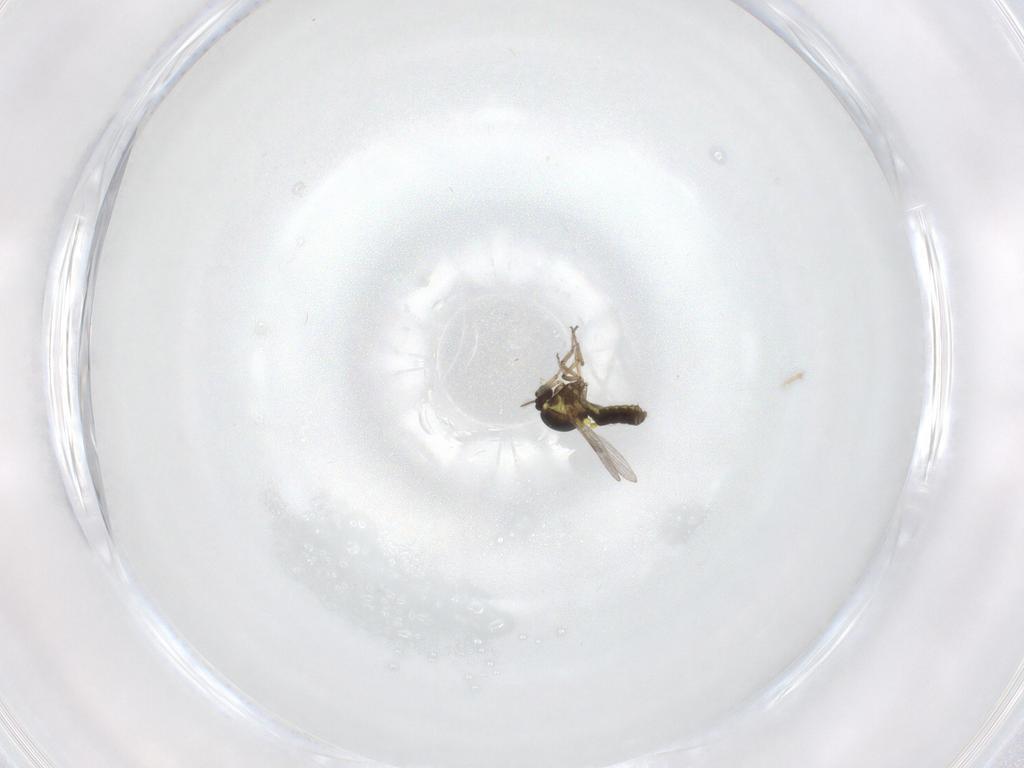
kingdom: Animalia
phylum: Arthropoda
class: Insecta
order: Diptera
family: Ceratopogonidae
